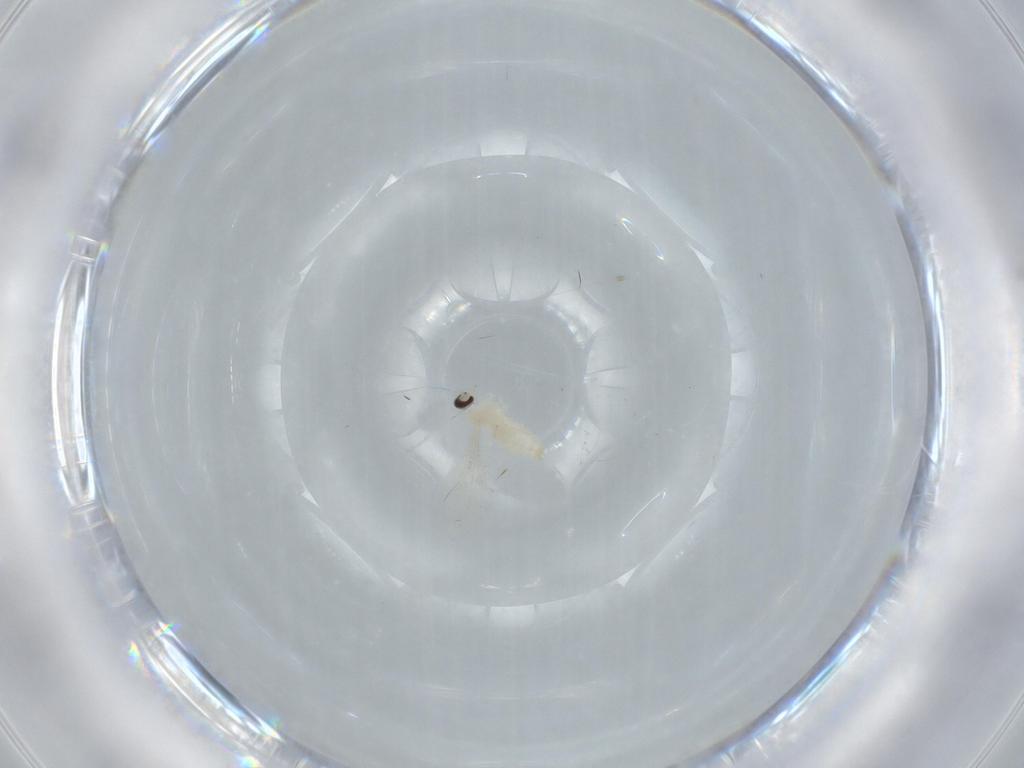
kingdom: Animalia
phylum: Arthropoda
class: Insecta
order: Diptera
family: Cecidomyiidae
